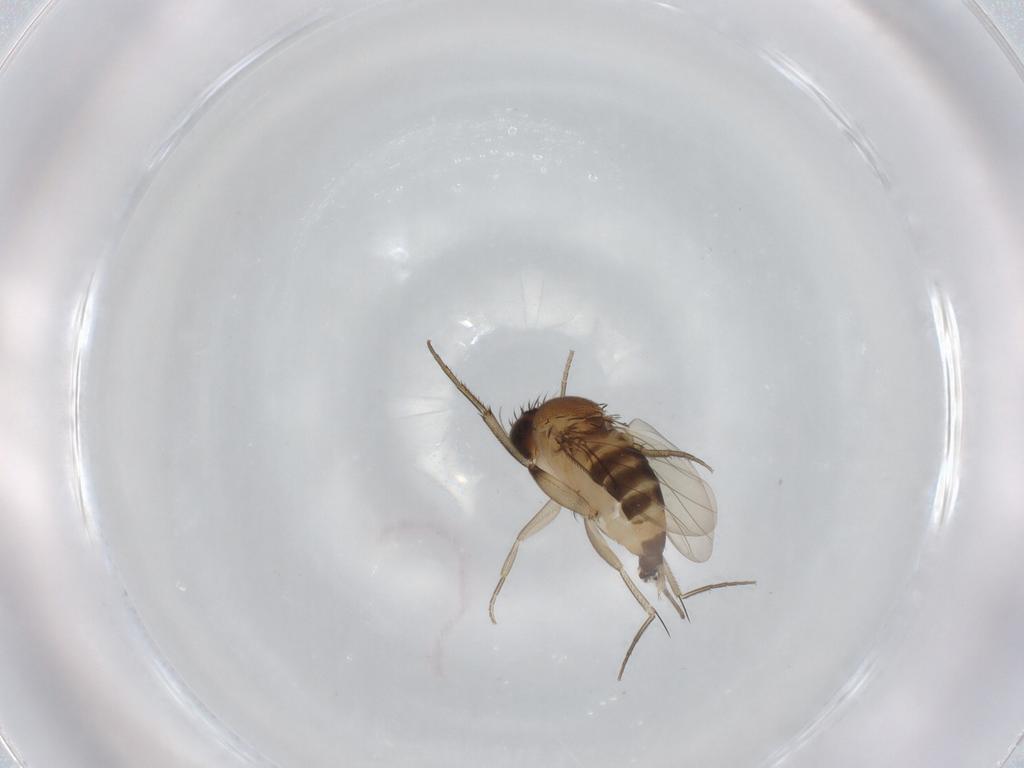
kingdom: Animalia
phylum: Arthropoda
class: Insecta
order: Diptera
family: Phoridae
